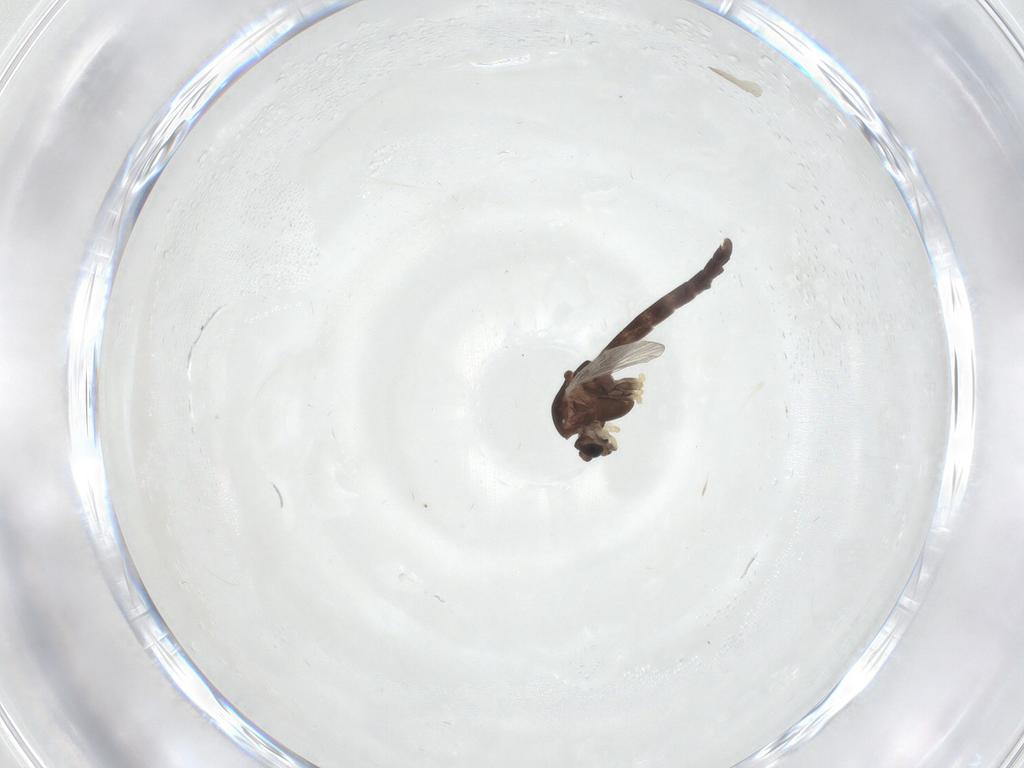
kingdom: Animalia
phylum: Arthropoda
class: Insecta
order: Diptera
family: Chironomidae
